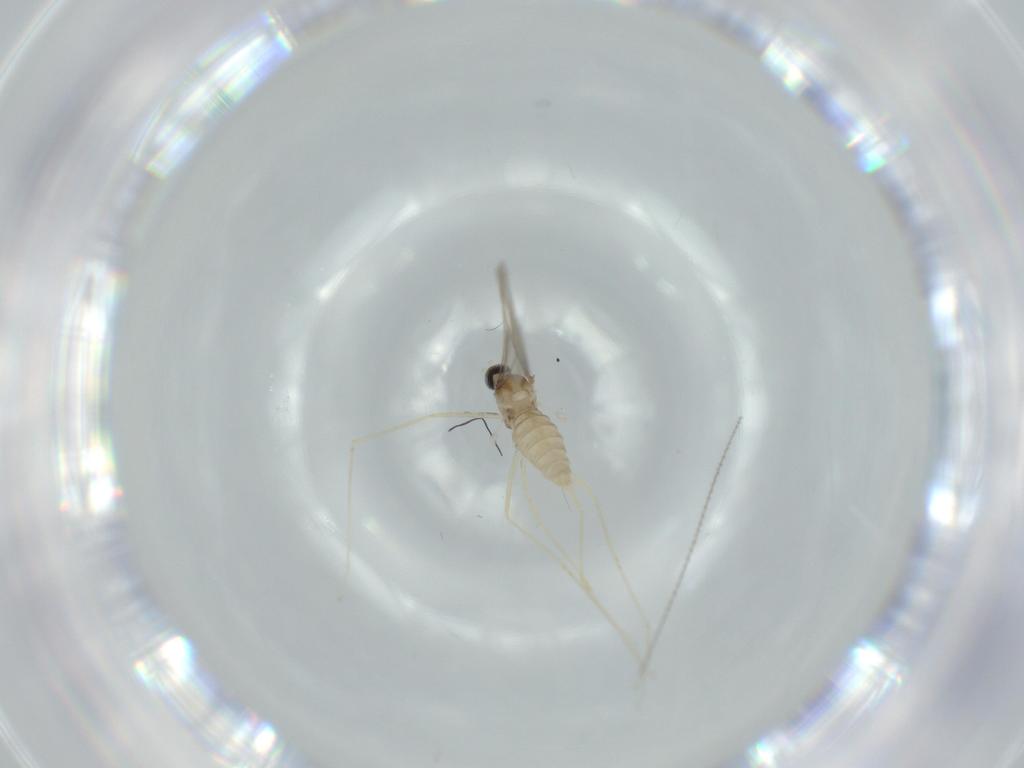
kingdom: Animalia
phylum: Arthropoda
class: Insecta
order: Diptera
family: Cecidomyiidae
